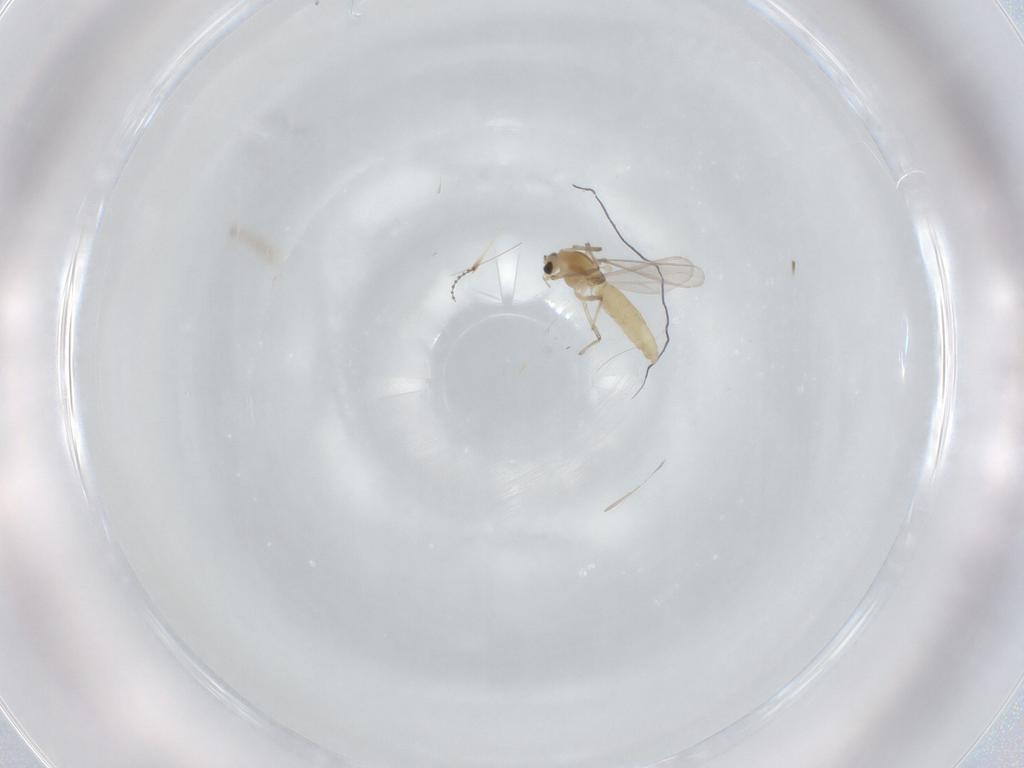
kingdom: Animalia
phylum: Arthropoda
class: Insecta
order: Diptera
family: Chironomidae
